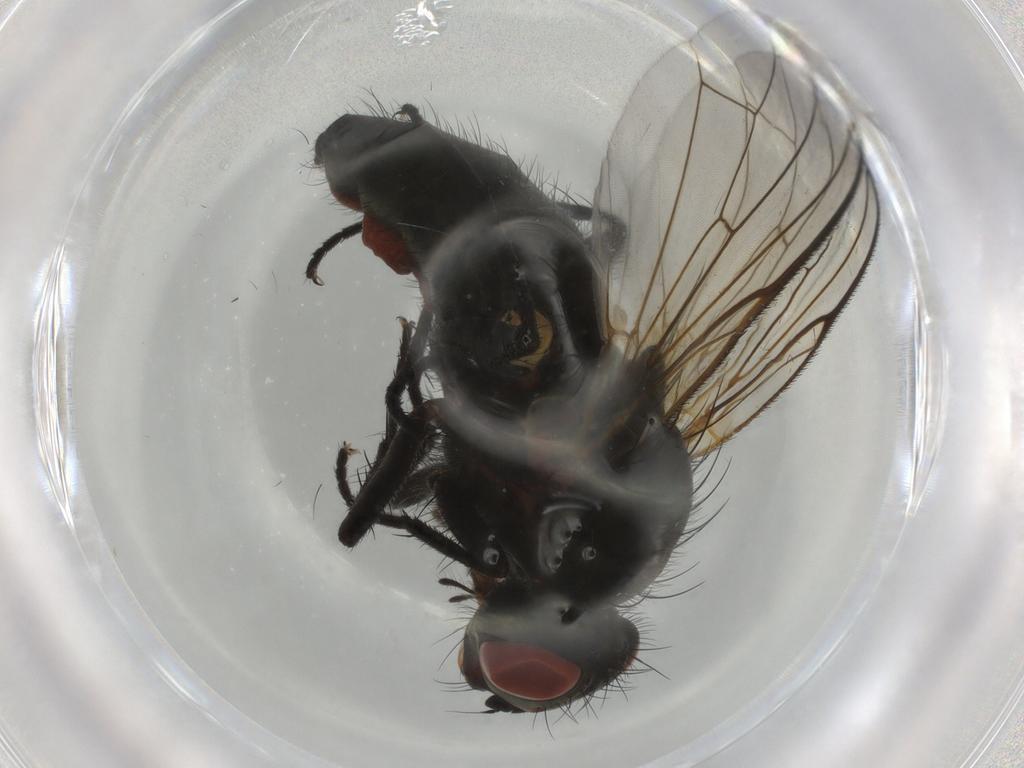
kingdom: Animalia
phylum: Arthropoda
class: Insecta
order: Diptera
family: Anthomyiidae
